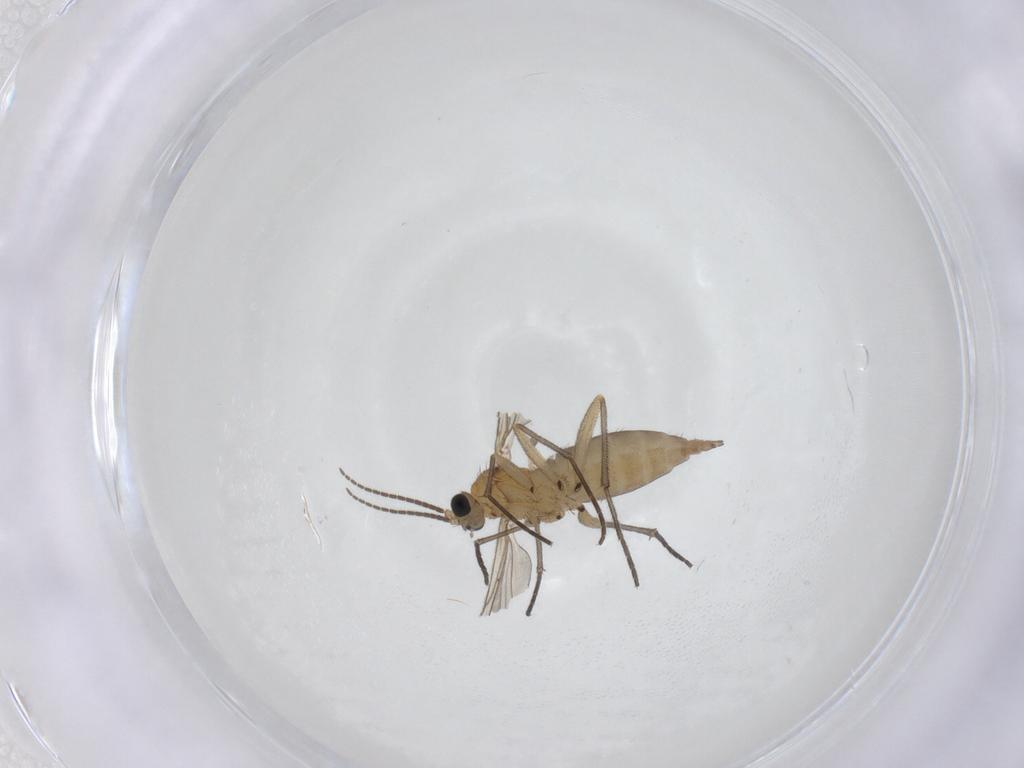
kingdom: Animalia
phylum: Arthropoda
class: Insecta
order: Diptera
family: Sciaridae
